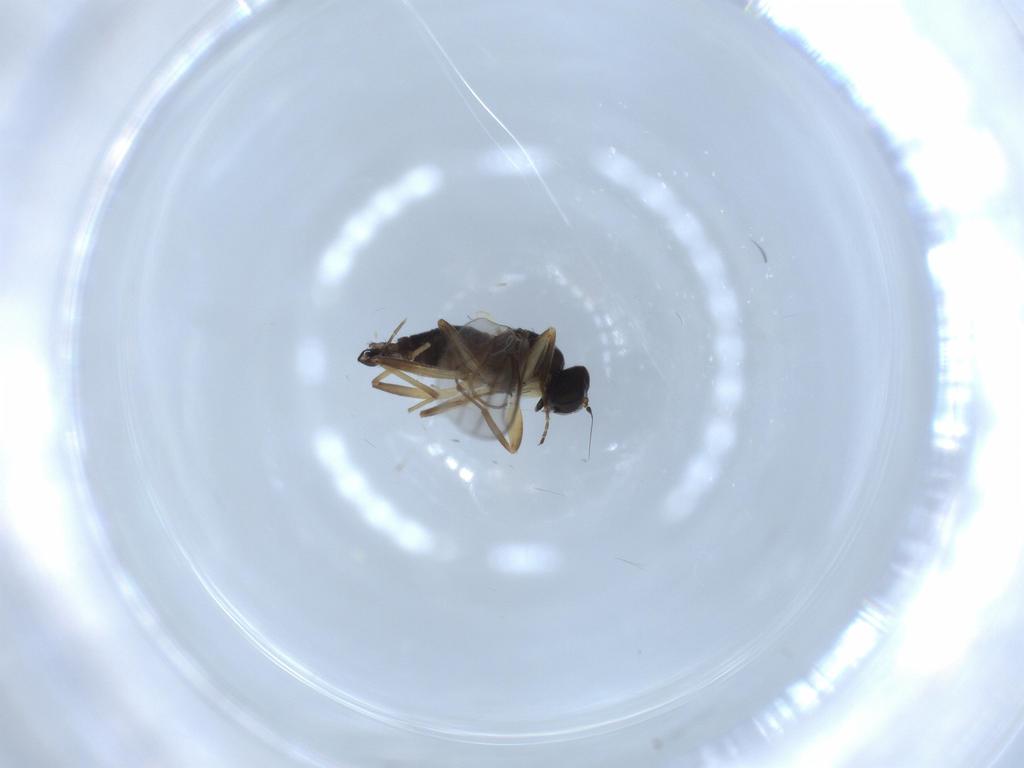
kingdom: Animalia
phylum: Arthropoda
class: Insecta
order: Diptera
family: Hybotidae
